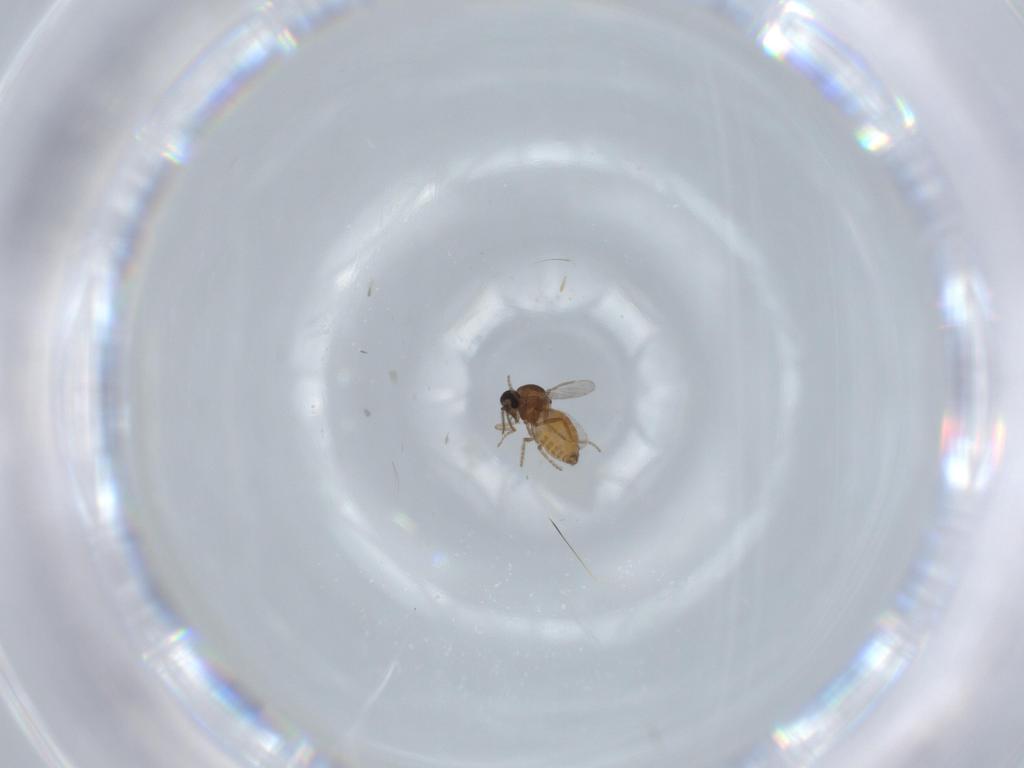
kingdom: Animalia
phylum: Arthropoda
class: Insecta
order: Diptera
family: Ceratopogonidae
